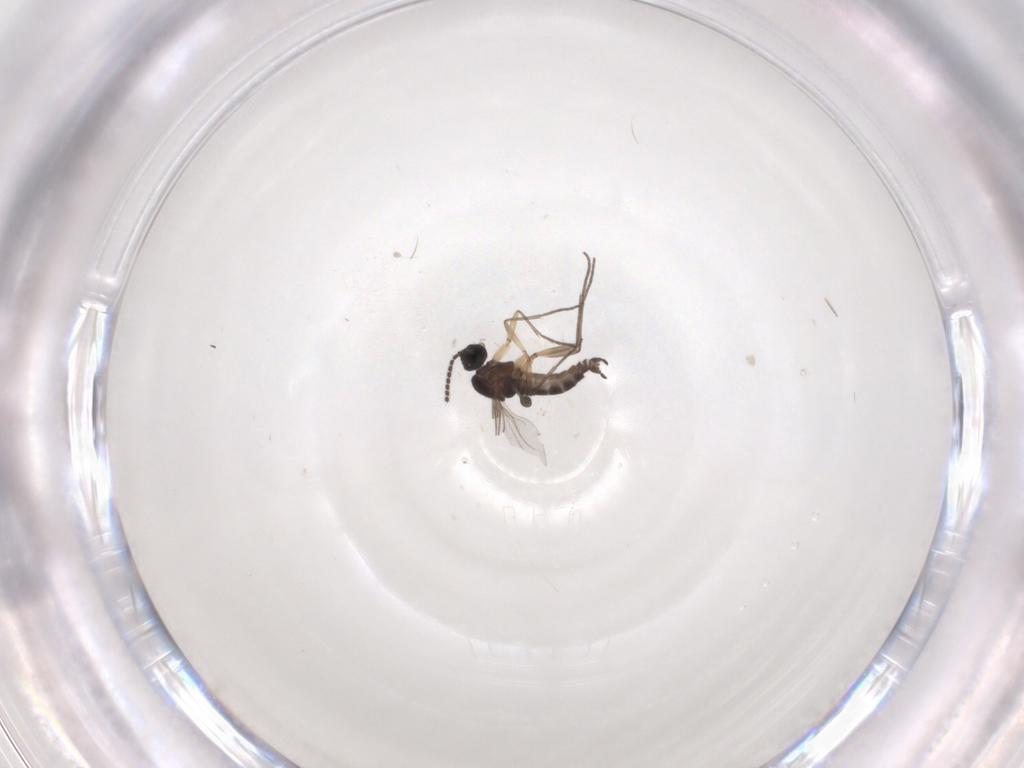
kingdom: Animalia
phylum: Arthropoda
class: Insecta
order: Diptera
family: Sciaridae
